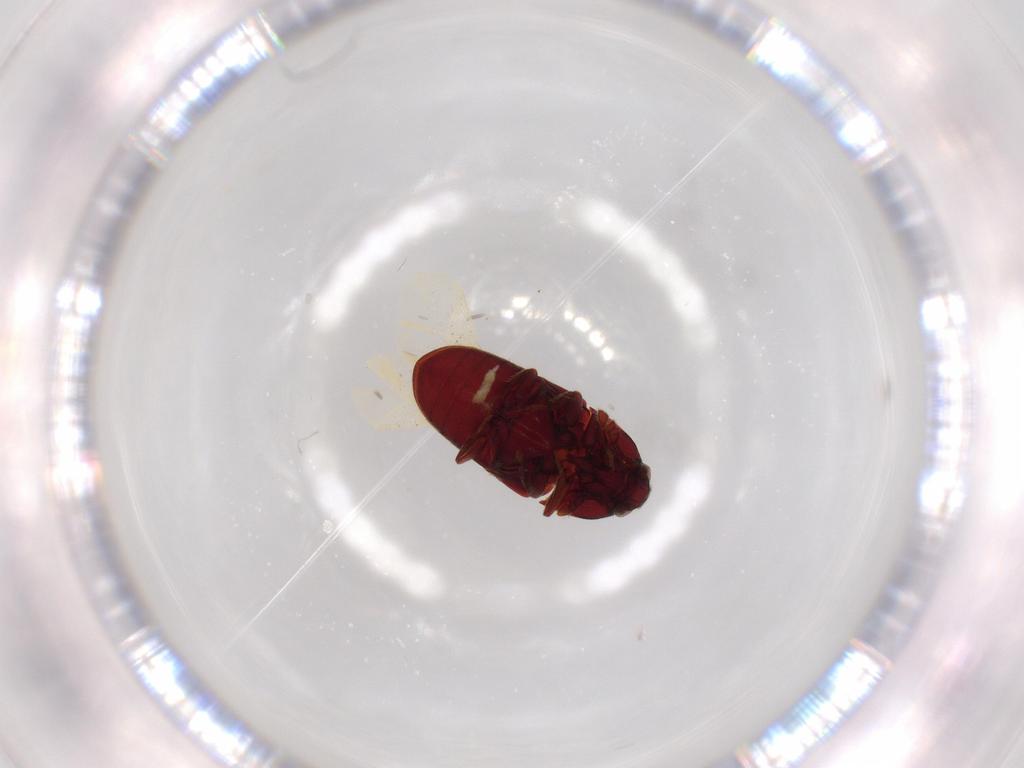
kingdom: Animalia
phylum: Arthropoda
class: Insecta
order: Coleoptera
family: Throscidae
